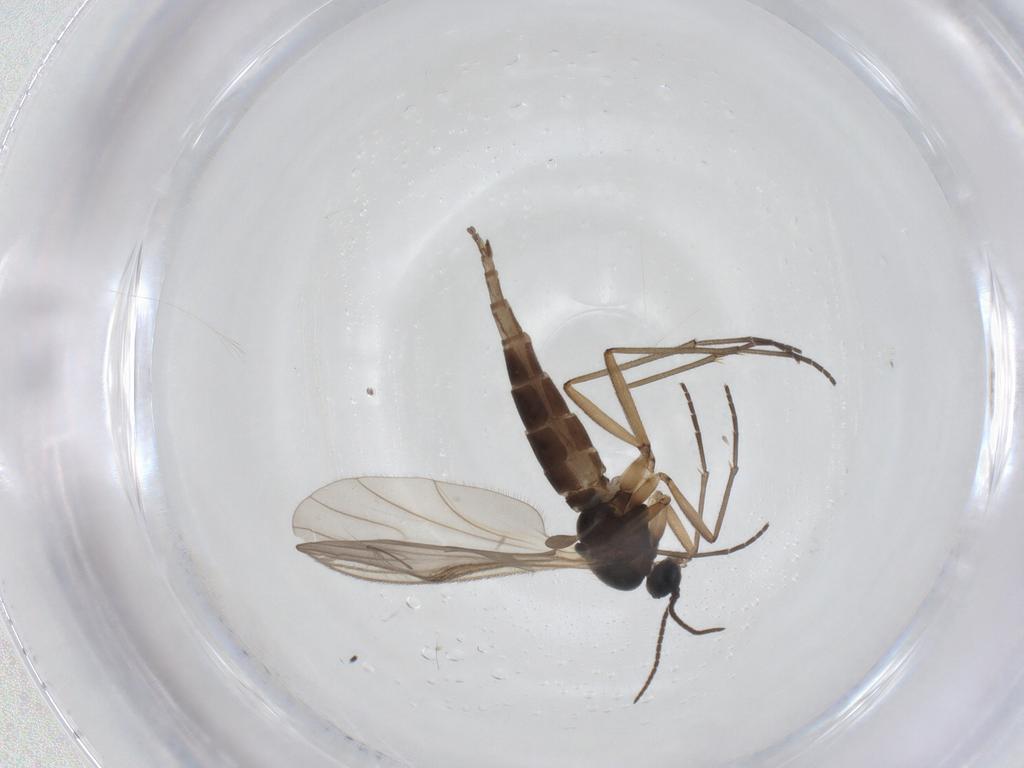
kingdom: Animalia
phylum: Arthropoda
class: Insecta
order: Diptera
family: Sciaridae
